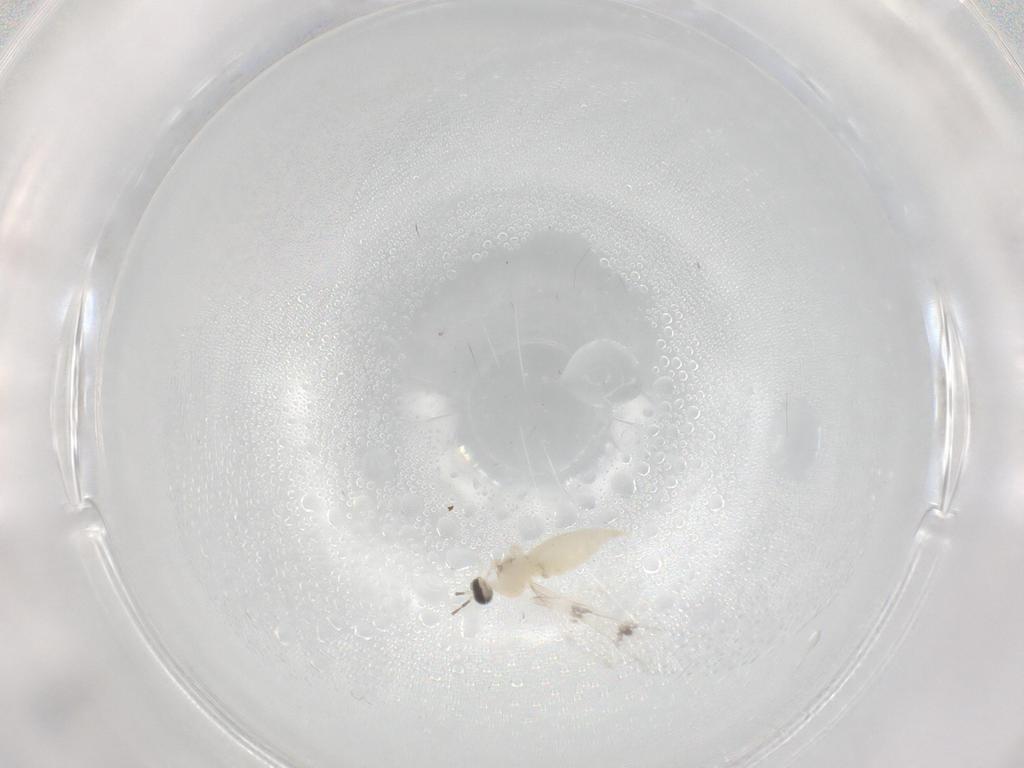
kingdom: Animalia
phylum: Arthropoda
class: Insecta
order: Diptera
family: Cecidomyiidae
